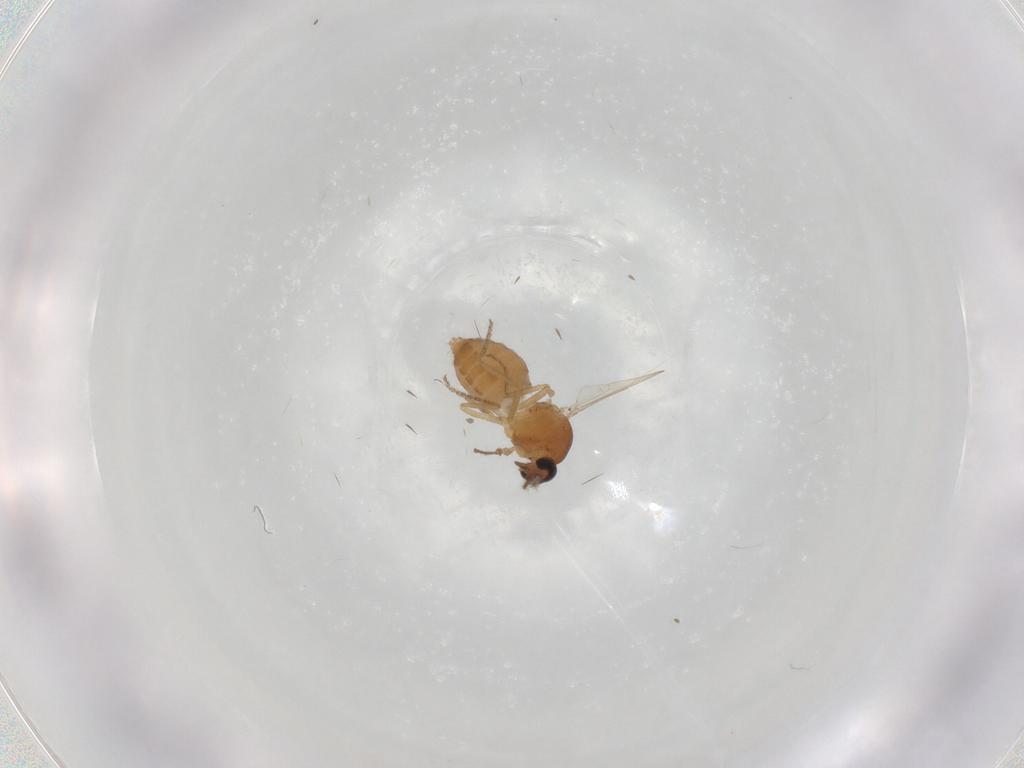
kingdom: Animalia
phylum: Arthropoda
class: Insecta
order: Diptera
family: Ceratopogonidae
